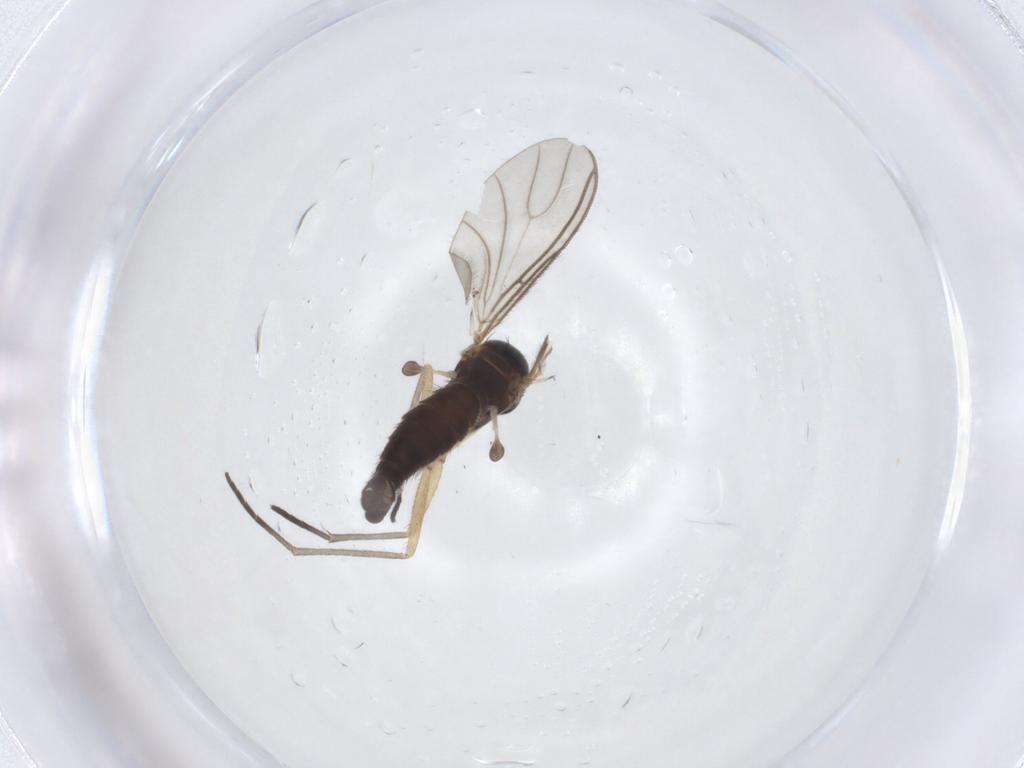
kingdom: Animalia
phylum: Arthropoda
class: Insecta
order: Diptera
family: Sciaridae
